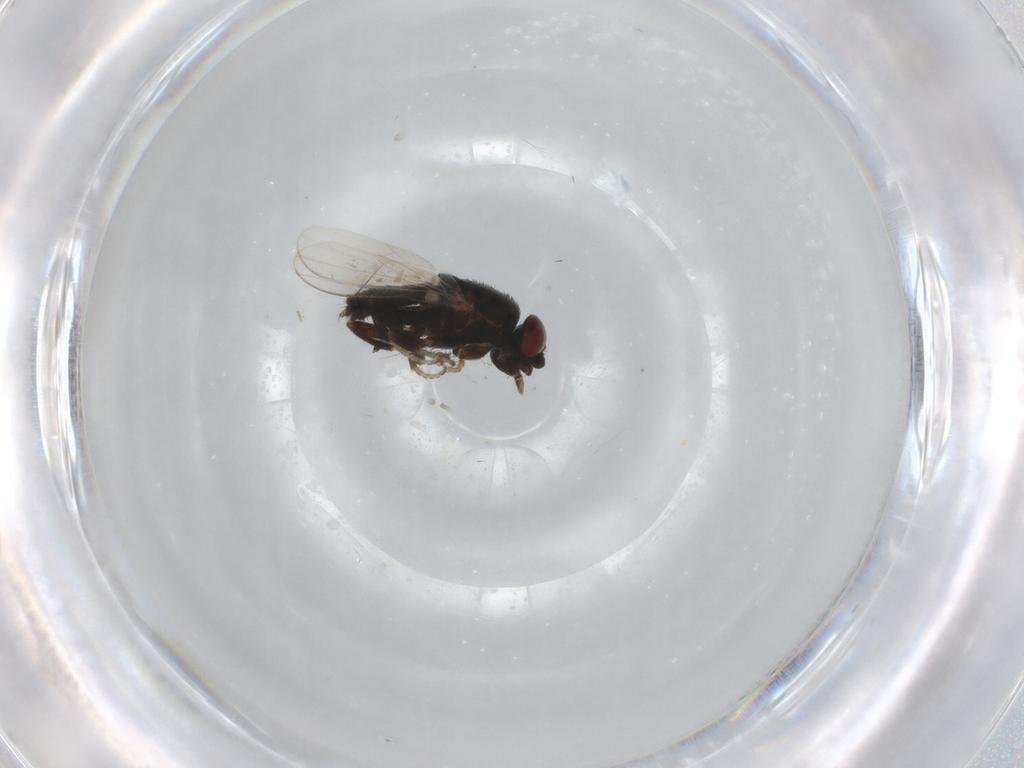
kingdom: Animalia
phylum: Arthropoda
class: Insecta
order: Diptera
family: Milichiidae
